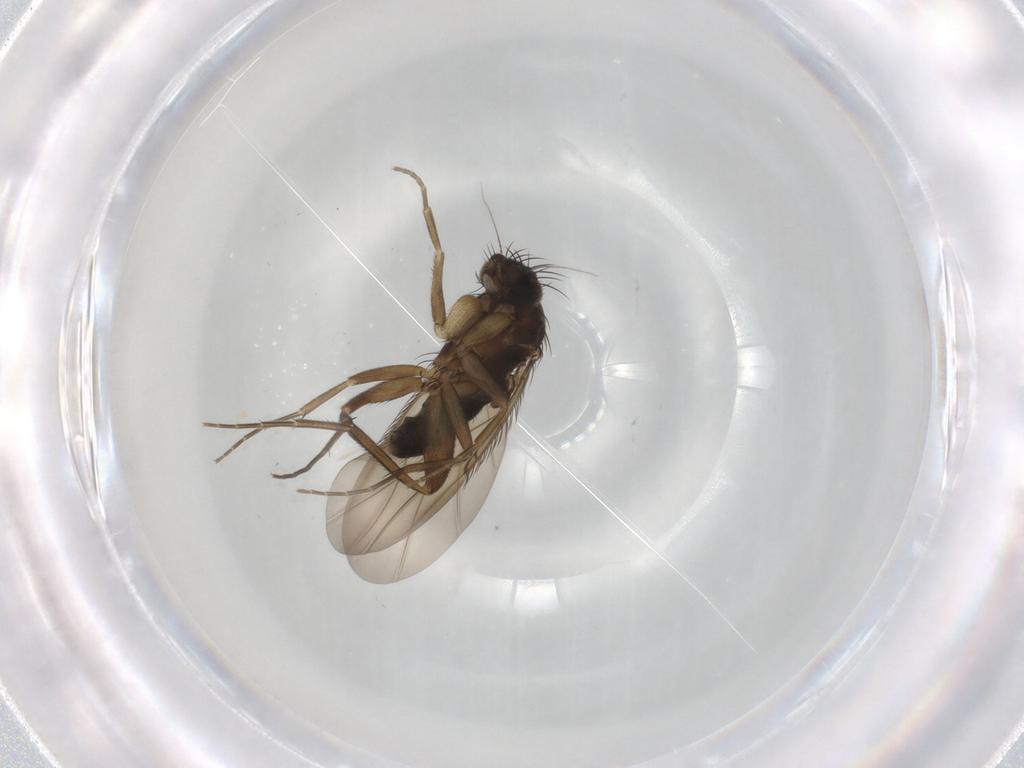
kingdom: Animalia
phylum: Arthropoda
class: Insecta
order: Diptera
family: Phoridae
